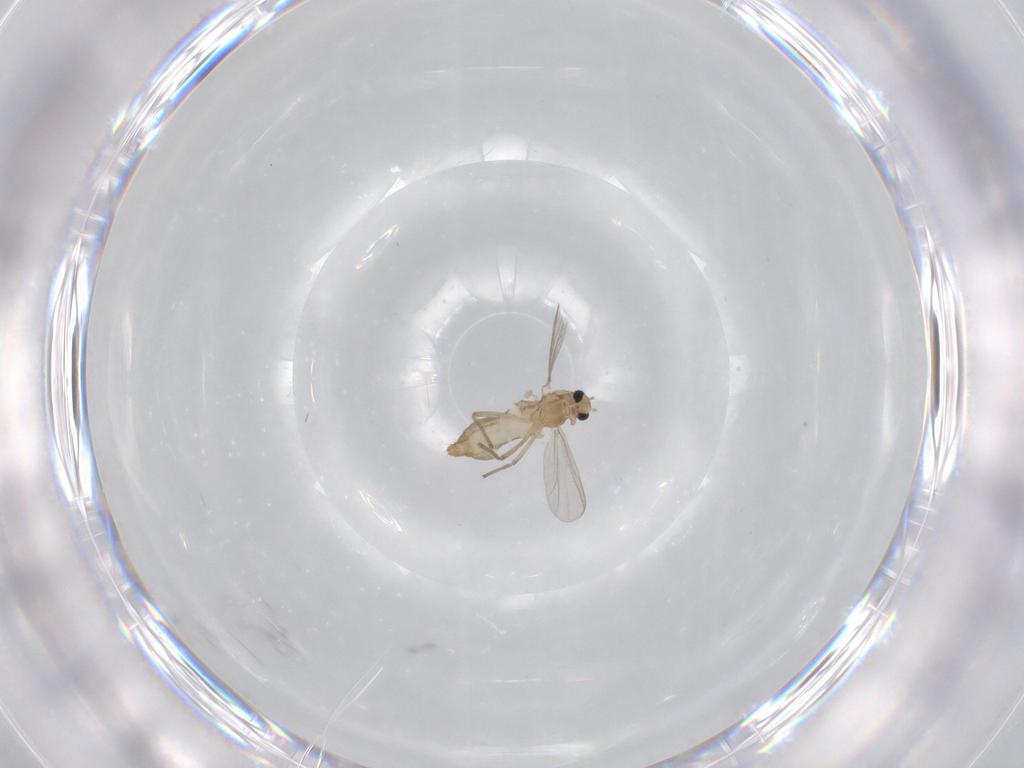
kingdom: Animalia
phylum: Arthropoda
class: Insecta
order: Diptera
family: Chironomidae
